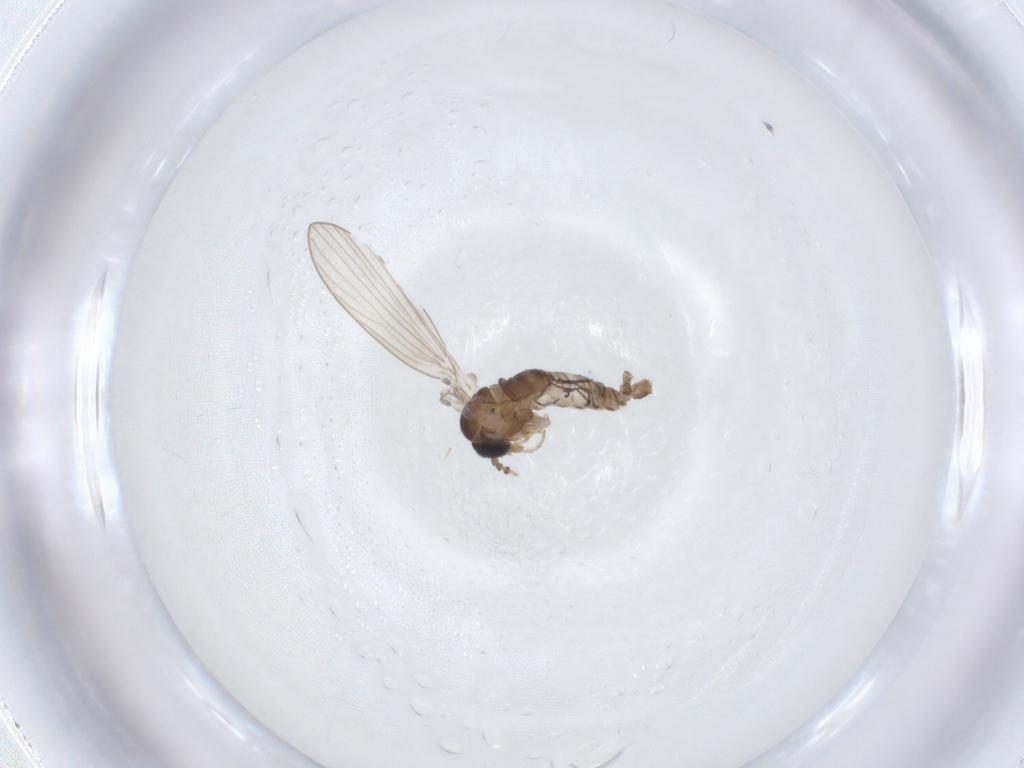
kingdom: Animalia
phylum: Arthropoda
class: Insecta
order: Diptera
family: Psychodidae
